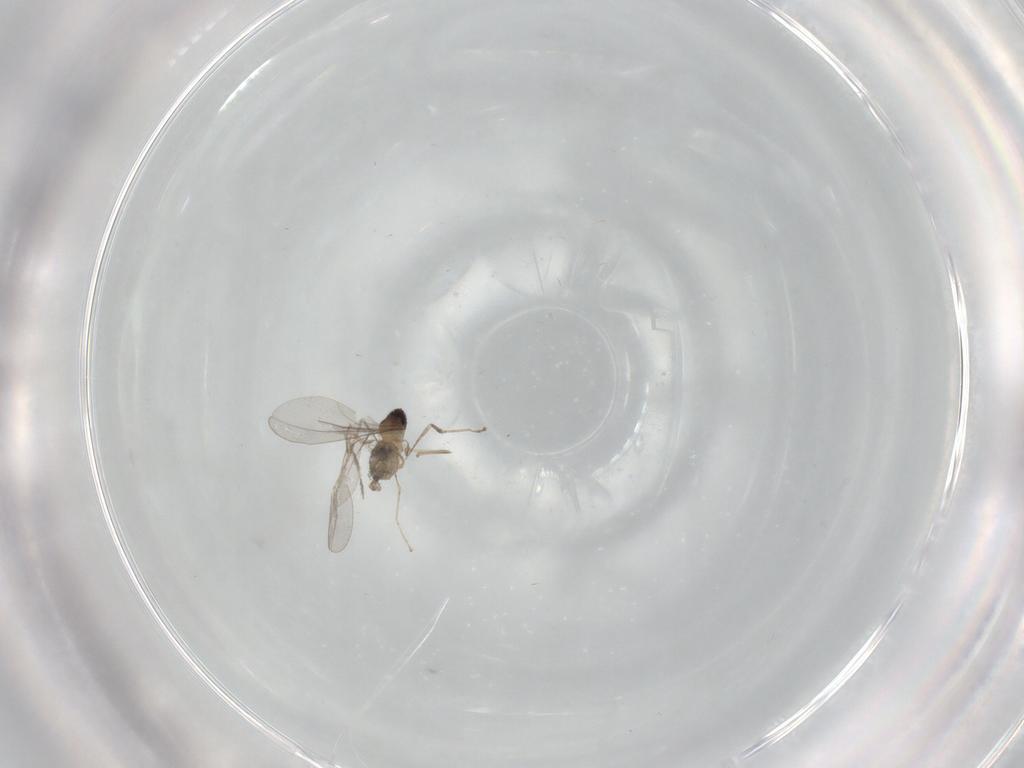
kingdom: Animalia
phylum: Arthropoda
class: Insecta
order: Diptera
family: Cecidomyiidae
